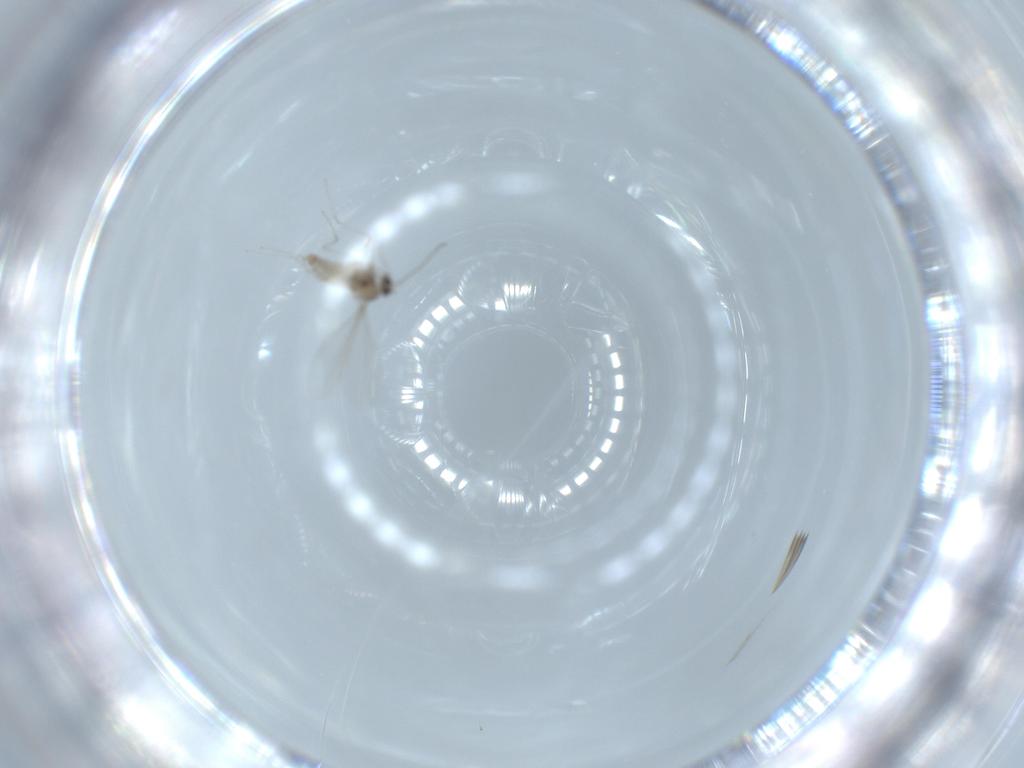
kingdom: Animalia
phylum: Arthropoda
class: Insecta
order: Diptera
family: Cecidomyiidae
